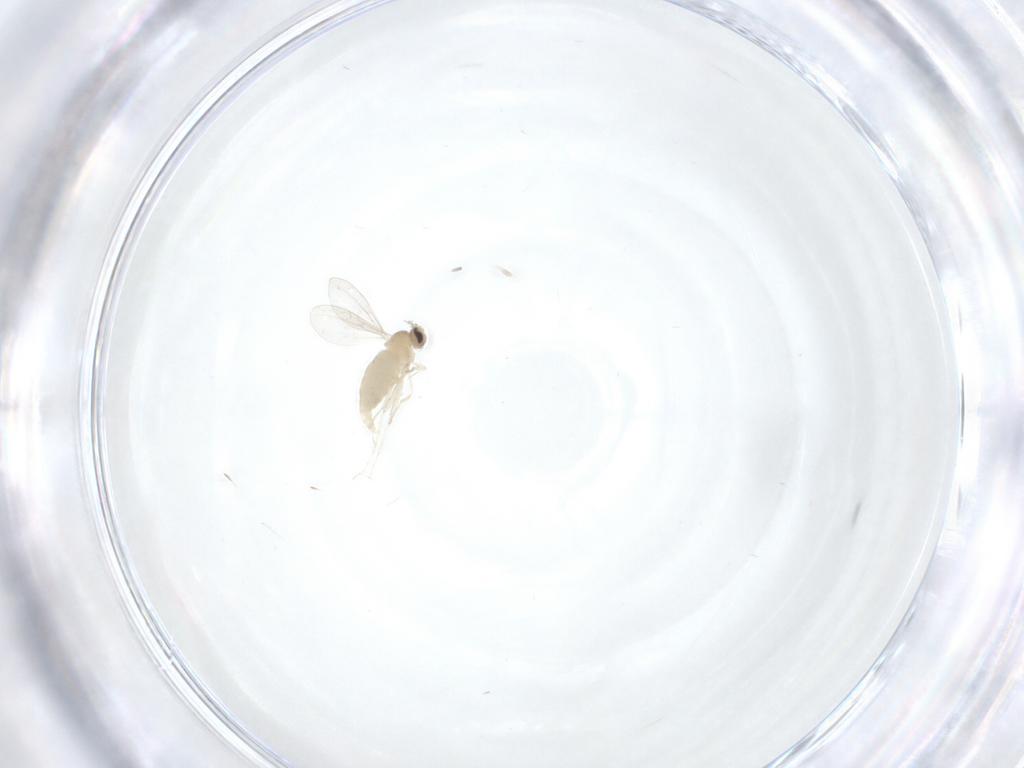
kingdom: Animalia
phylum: Arthropoda
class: Insecta
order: Diptera
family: Cecidomyiidae
